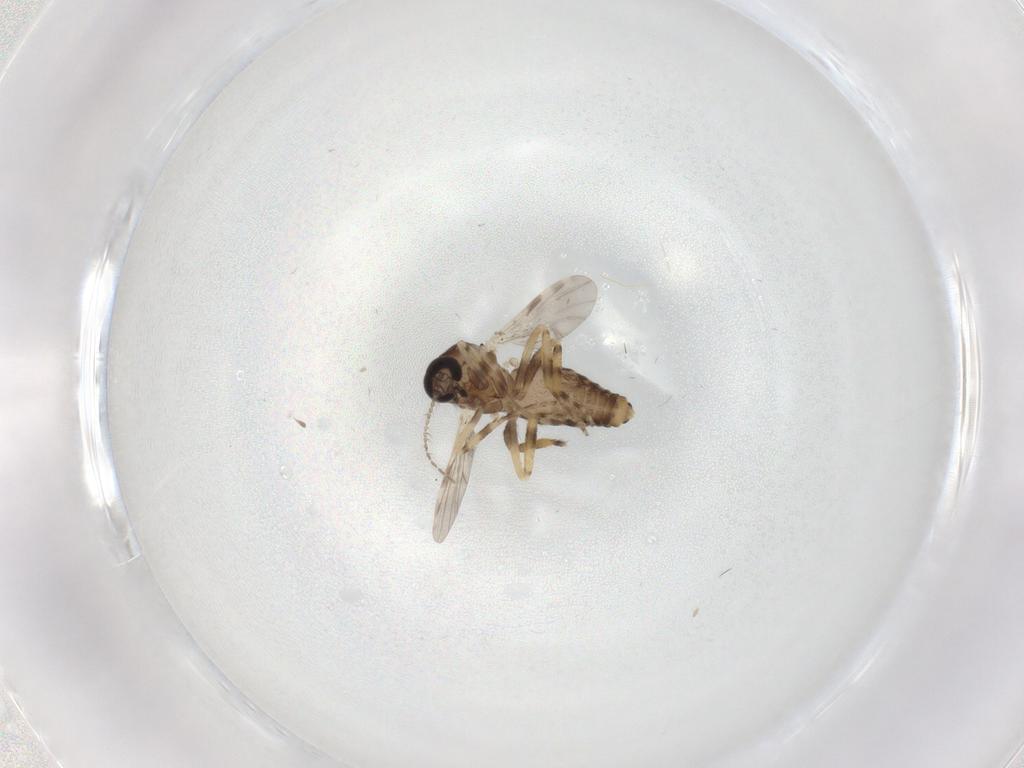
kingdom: Animalia
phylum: Arthropoda
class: Insecta
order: Diptera
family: Ceratopogonidae
